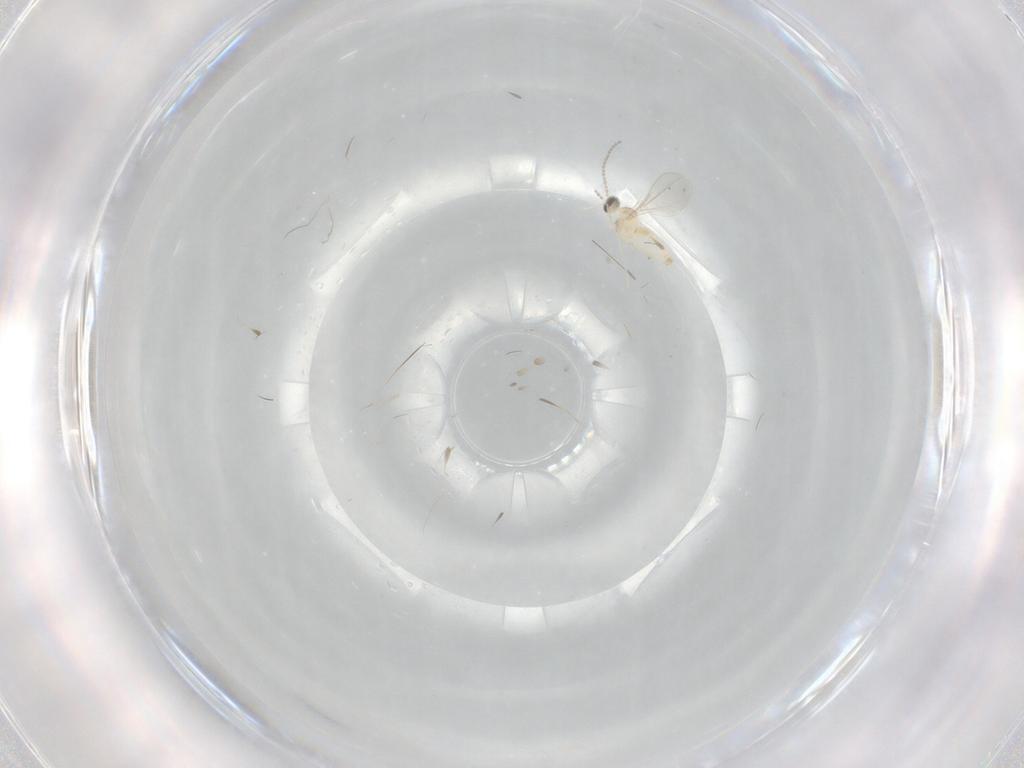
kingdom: Animalia
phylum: Arthropoda
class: Insecta
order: Diptera
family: Cecidomyiidae
